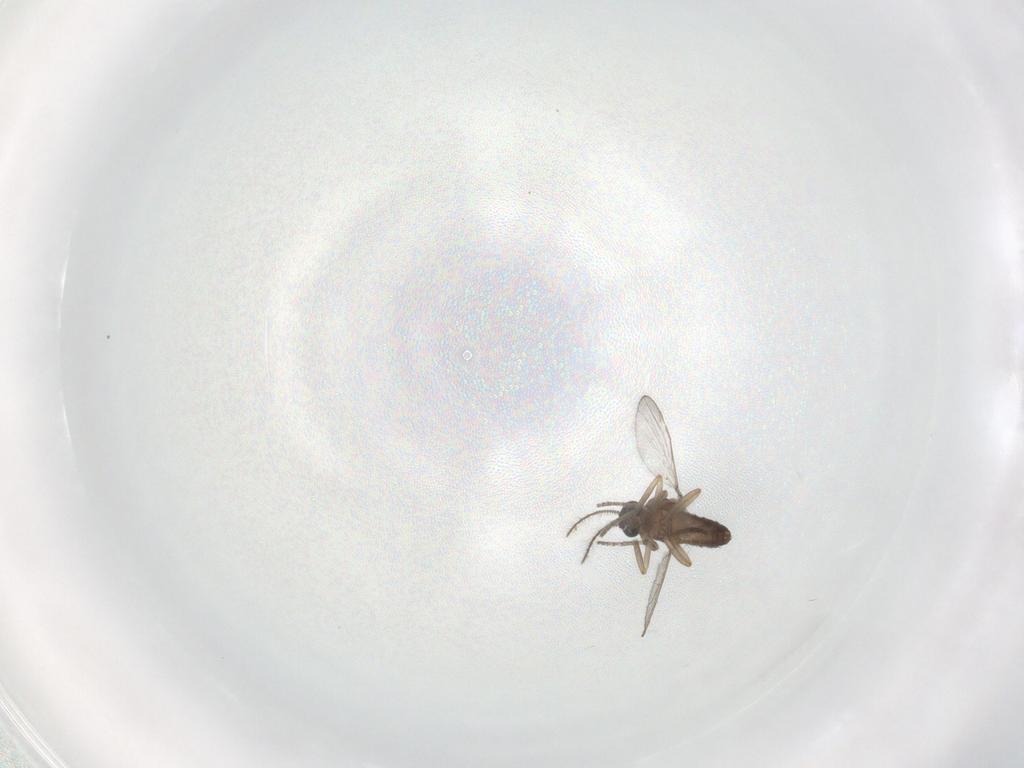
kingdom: Animalia
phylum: Arthropoda
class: Insecta
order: Diptera
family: Ceratopogonidae
